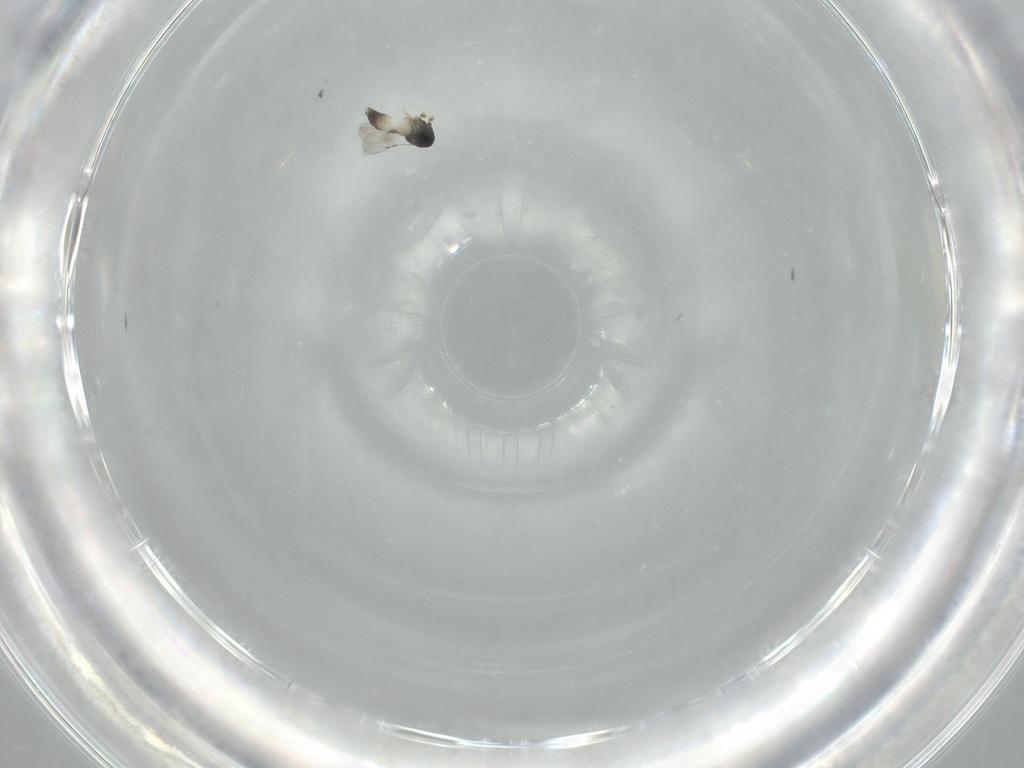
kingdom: Animalia
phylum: Arthropoda
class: Insecta
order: Hymenoptera
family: Ceraphronidae
